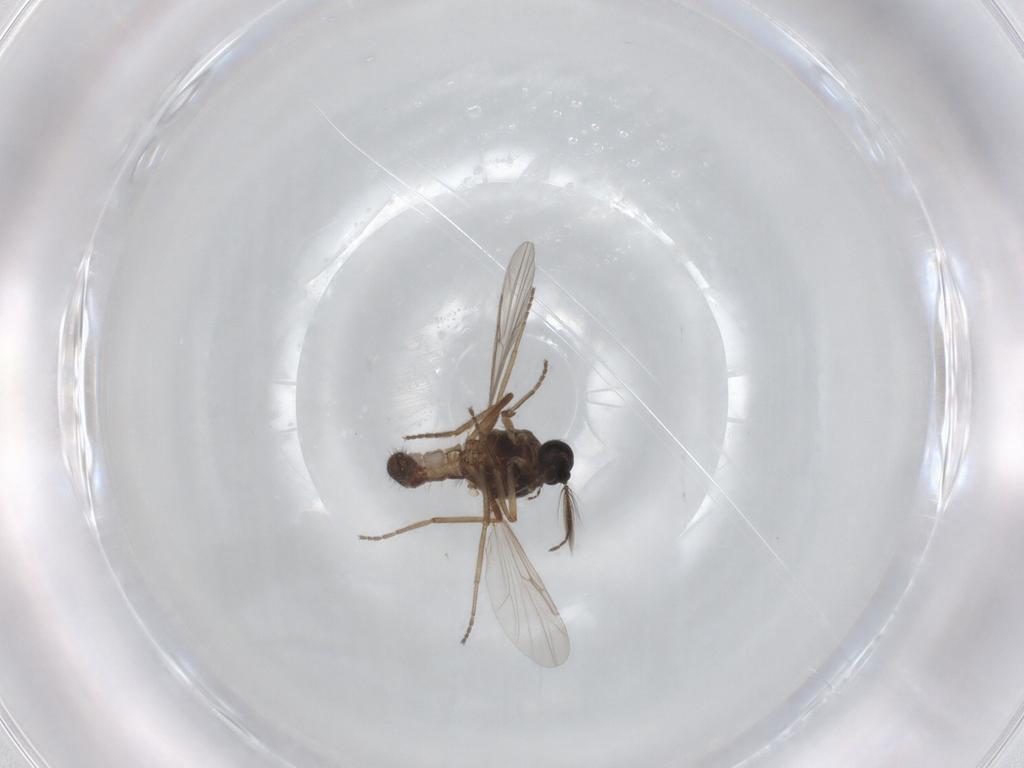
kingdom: Animalia
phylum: Arthropoda
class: Insecta
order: Diptera
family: Ceratopogonidae
